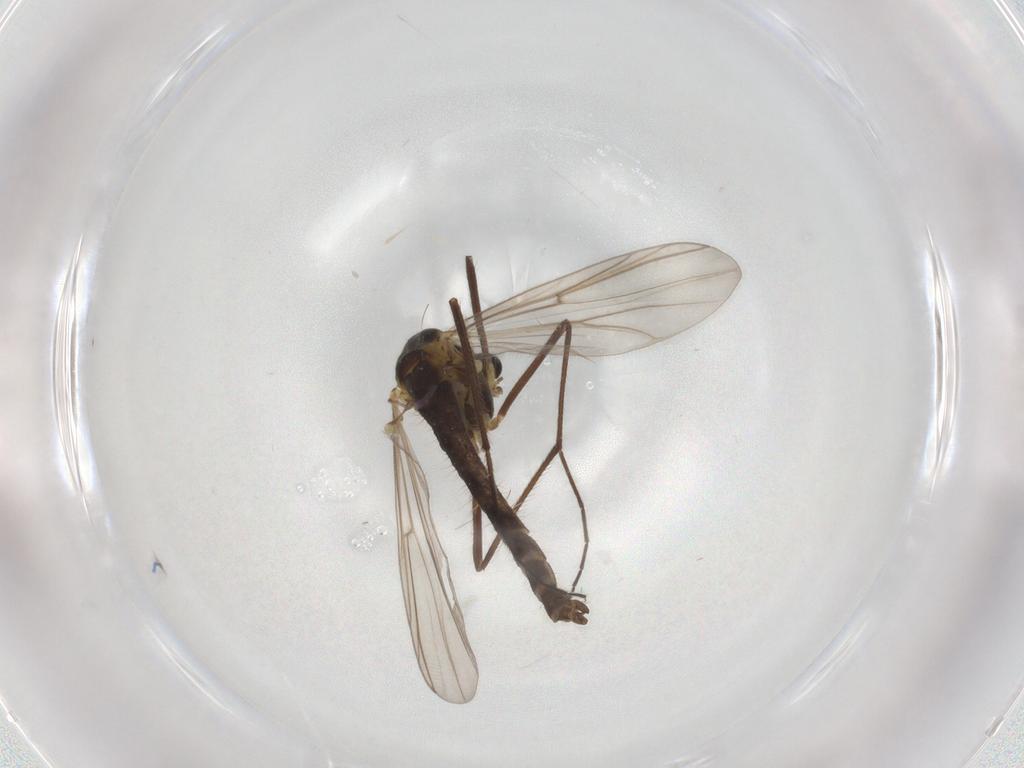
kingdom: Animalia
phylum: Arthropoda
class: Insecta
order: Diptera
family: Chironomidae
